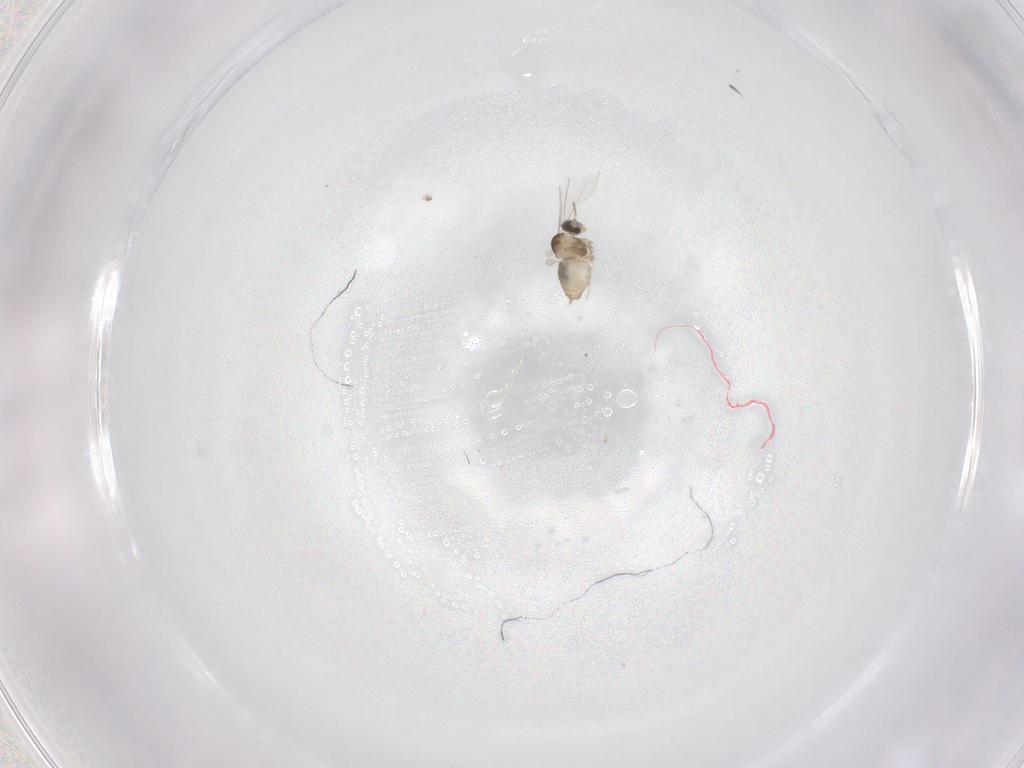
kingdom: Animalia
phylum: Arthropoda
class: Insecta
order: Diptera
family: Cecidomyiidae
